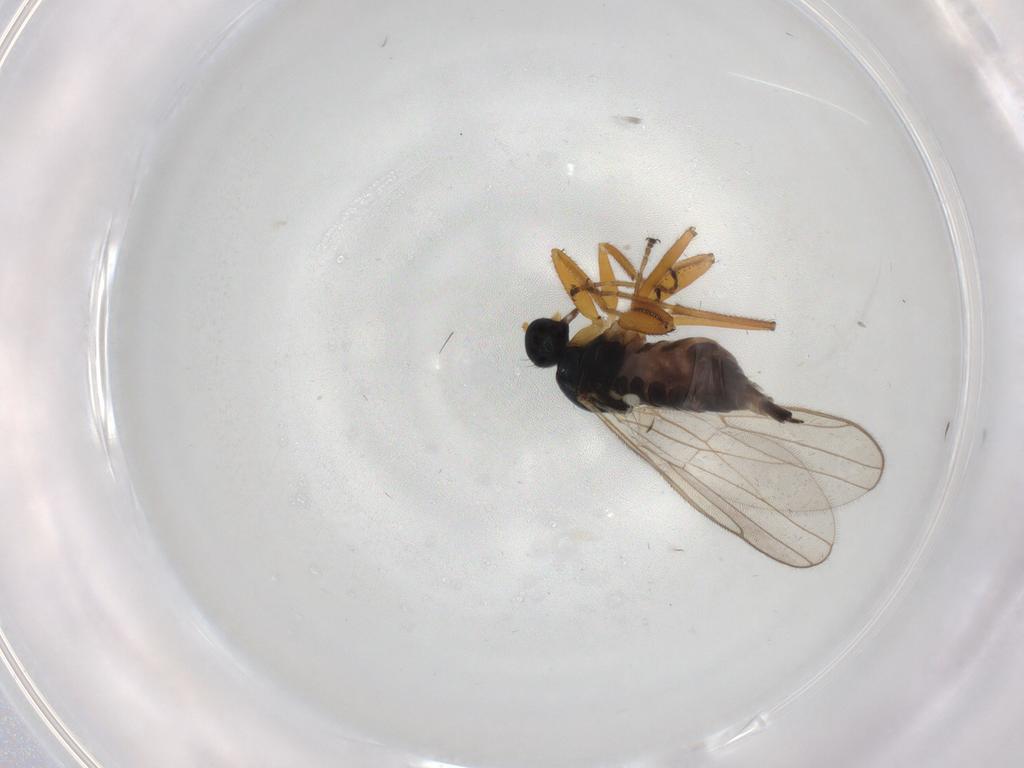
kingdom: Animalia
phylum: Arthropoda
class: Insecta
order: Diptera
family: Hybotidae
